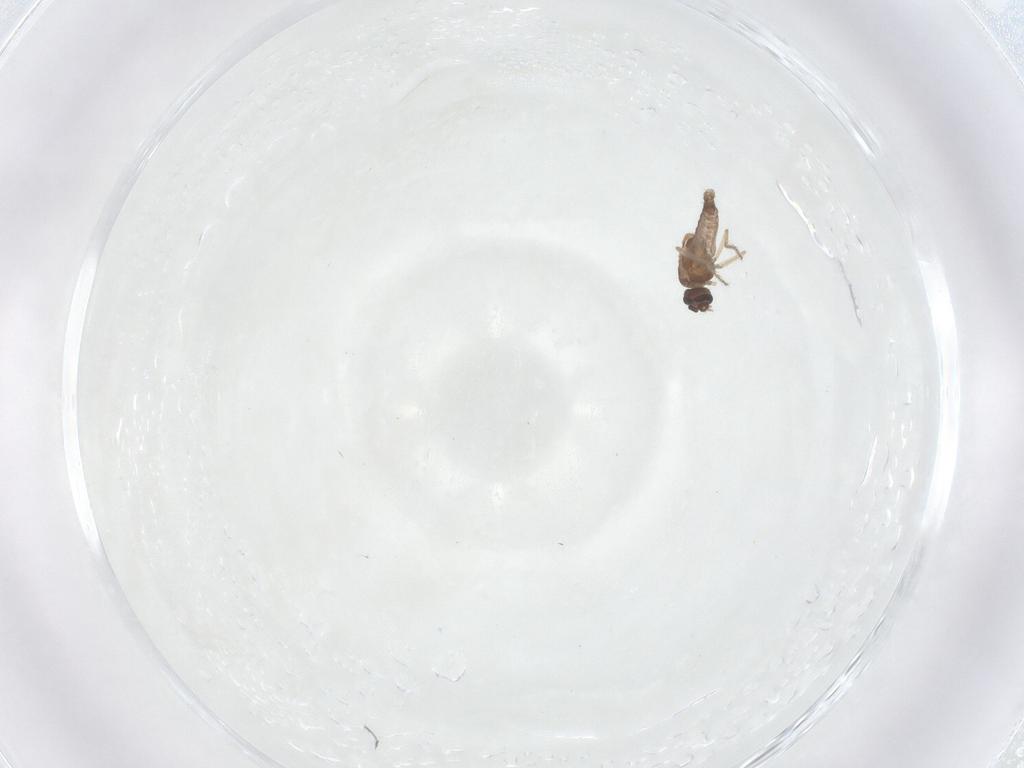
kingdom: Animalia
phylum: Arthropoda
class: Insecta
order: Diptera
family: Ceratopogonidae
